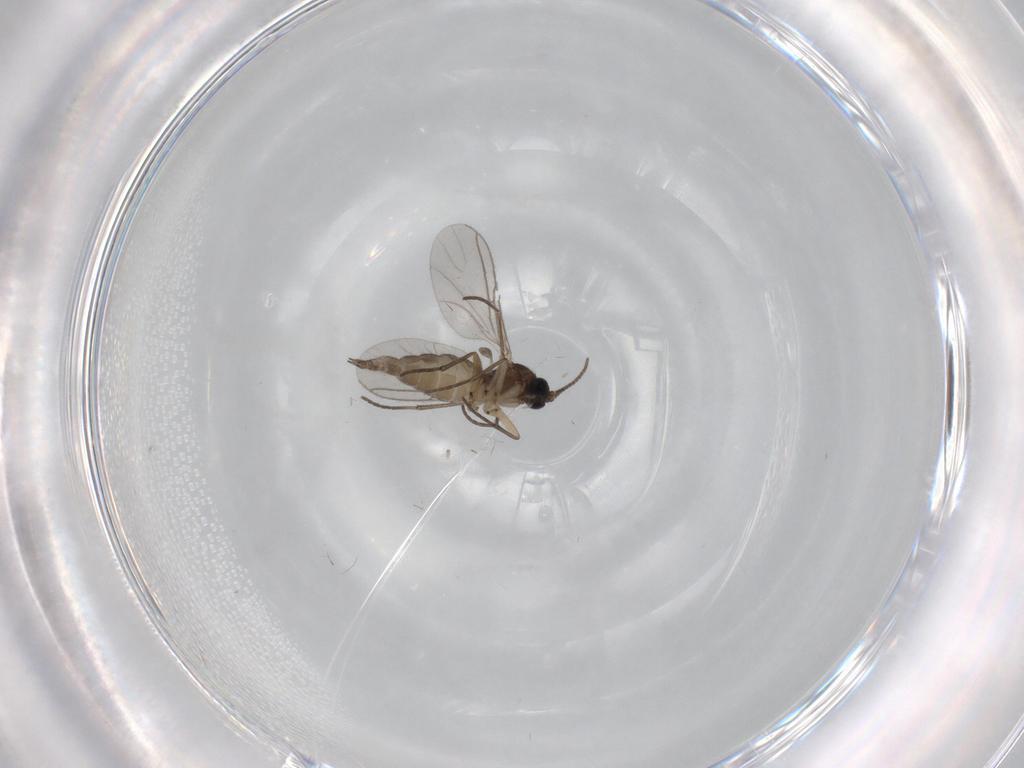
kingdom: Animalia
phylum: Arthropoda
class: Insecta
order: Diptera
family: Sciaridae
